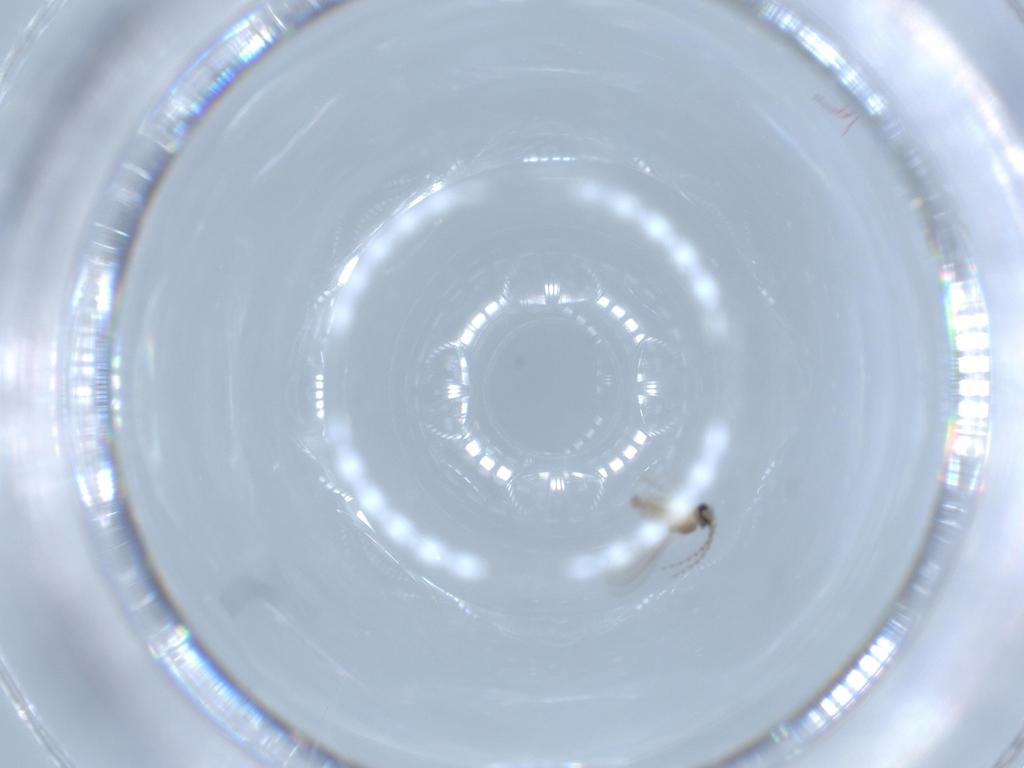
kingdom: Animalia
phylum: Arthropoda
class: Insecta
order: Diptera
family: Cecidomyiidae
